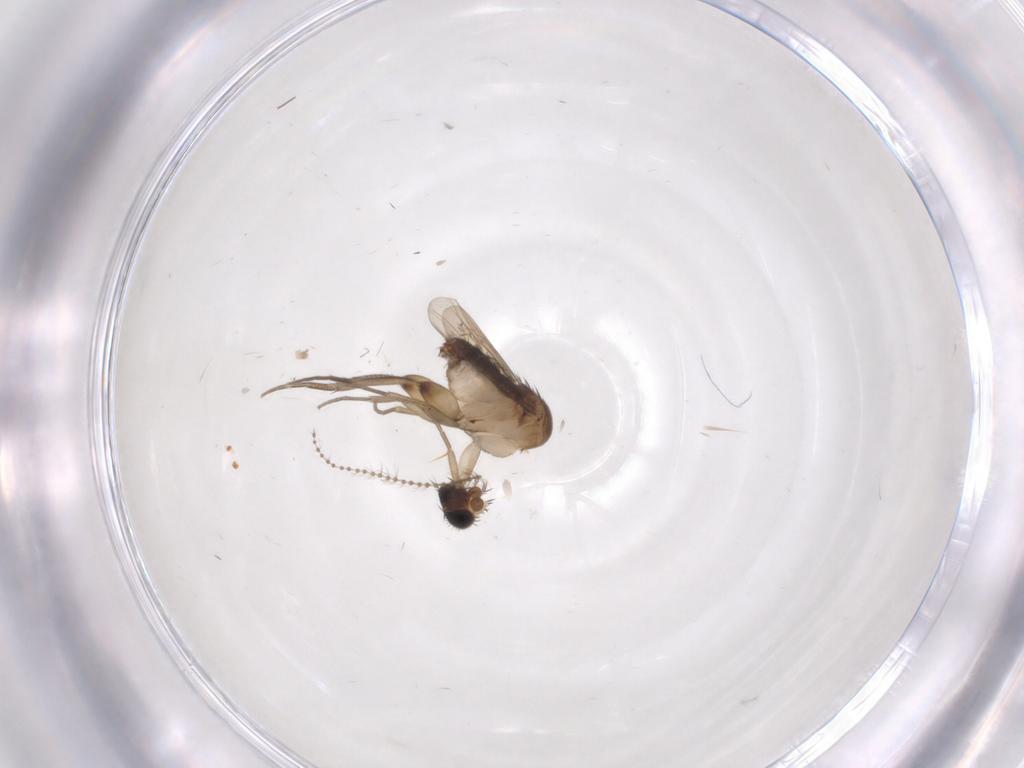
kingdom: Animalia
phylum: Arthropoda
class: Insecta
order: Diptera
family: Phoridae
